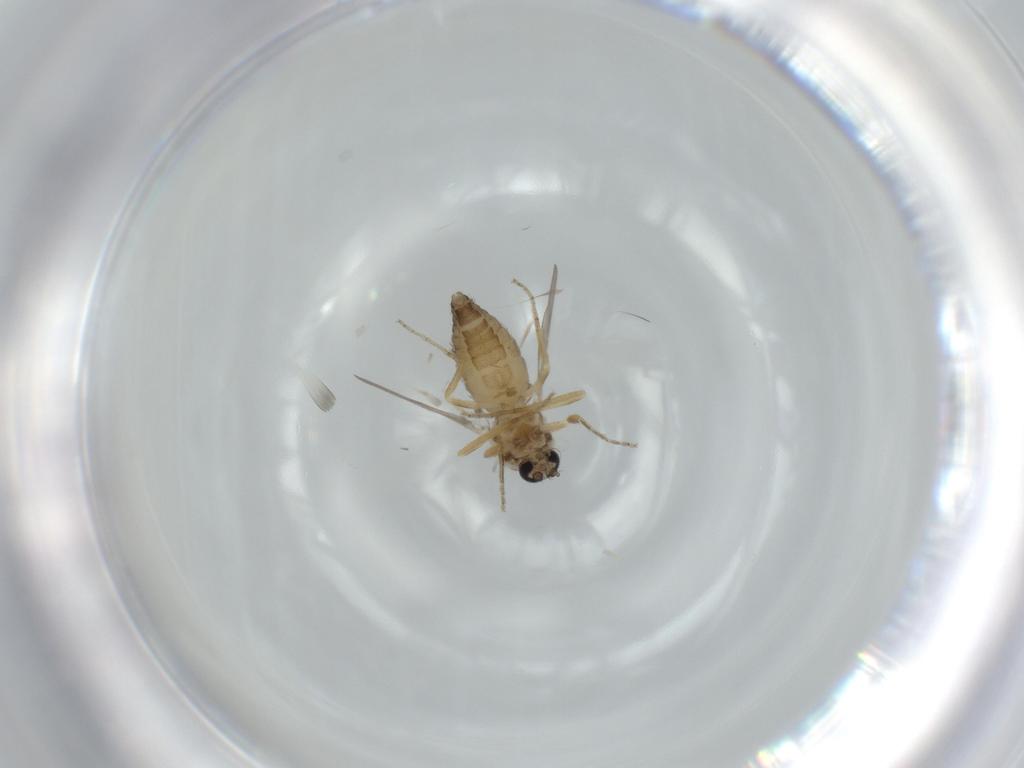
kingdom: Animalia
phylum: Arthropoda
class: Insecta
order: Diptera
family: Ceratopogonidae
